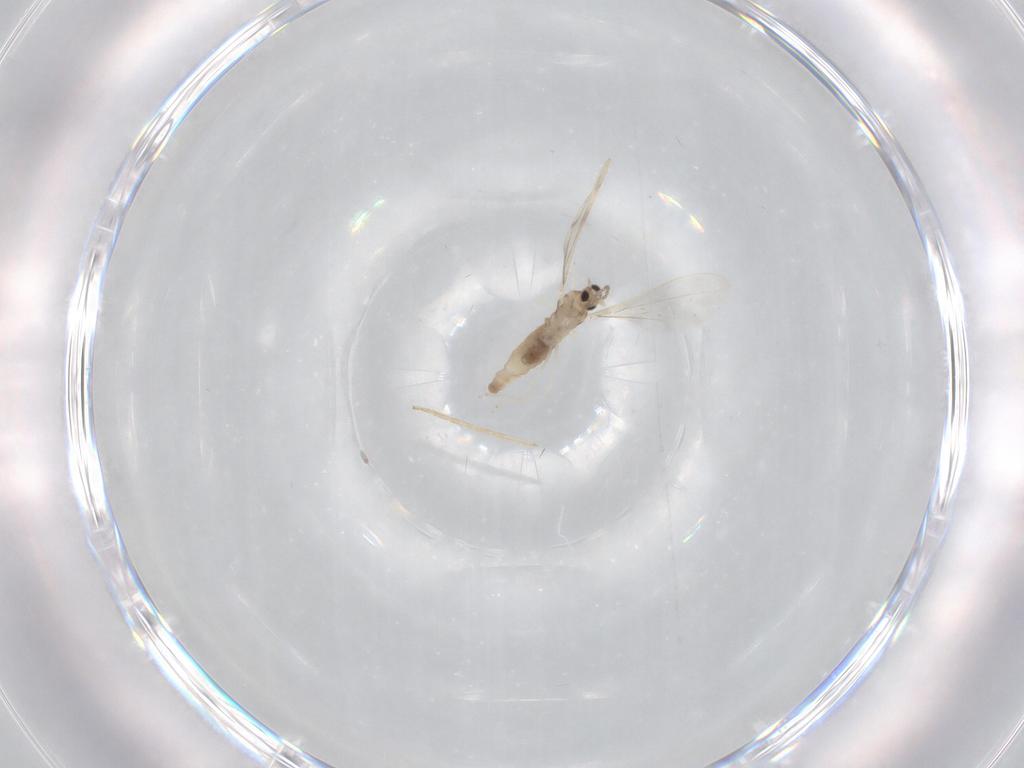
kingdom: Animalia
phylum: Arthropoda
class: Insecta
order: Diptera
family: Cecidomyiidae
